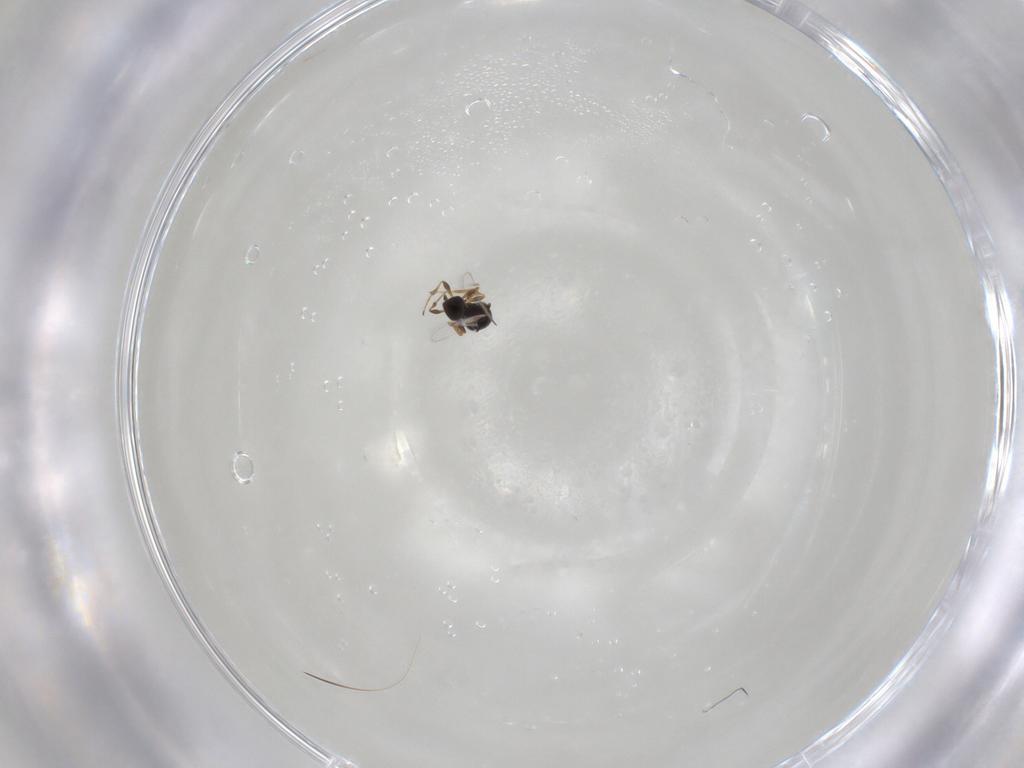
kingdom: Animalia
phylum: Arthropoda
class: Insecta
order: Hymenoptera
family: Platygastridae
